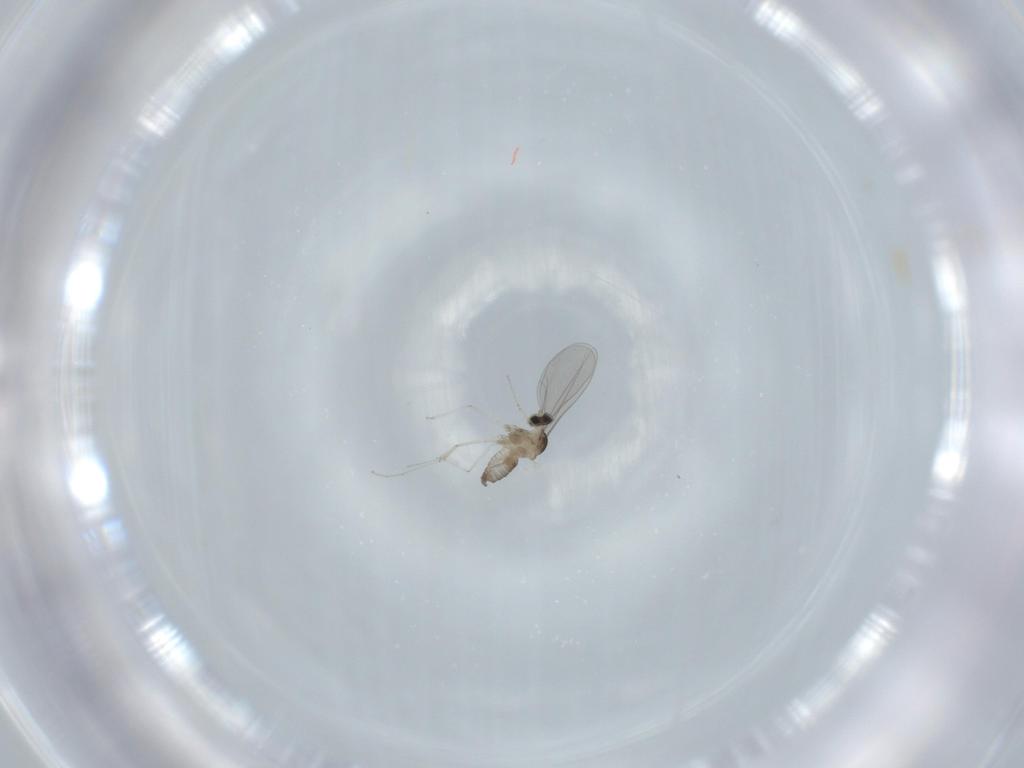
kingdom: Animalia
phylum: Arthropoda
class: Insecta
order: Diptera
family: Cecidomyiidae
